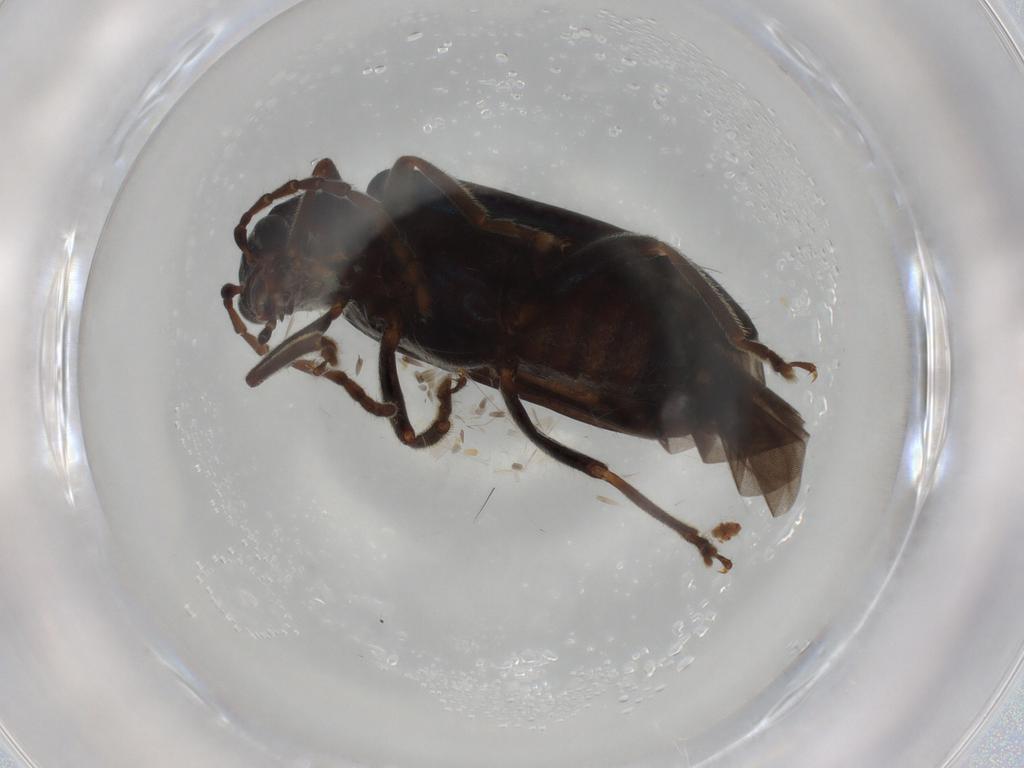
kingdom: Animalia
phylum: Arthropoda
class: Insecta
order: Coleoptera
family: Chrysomelidae
